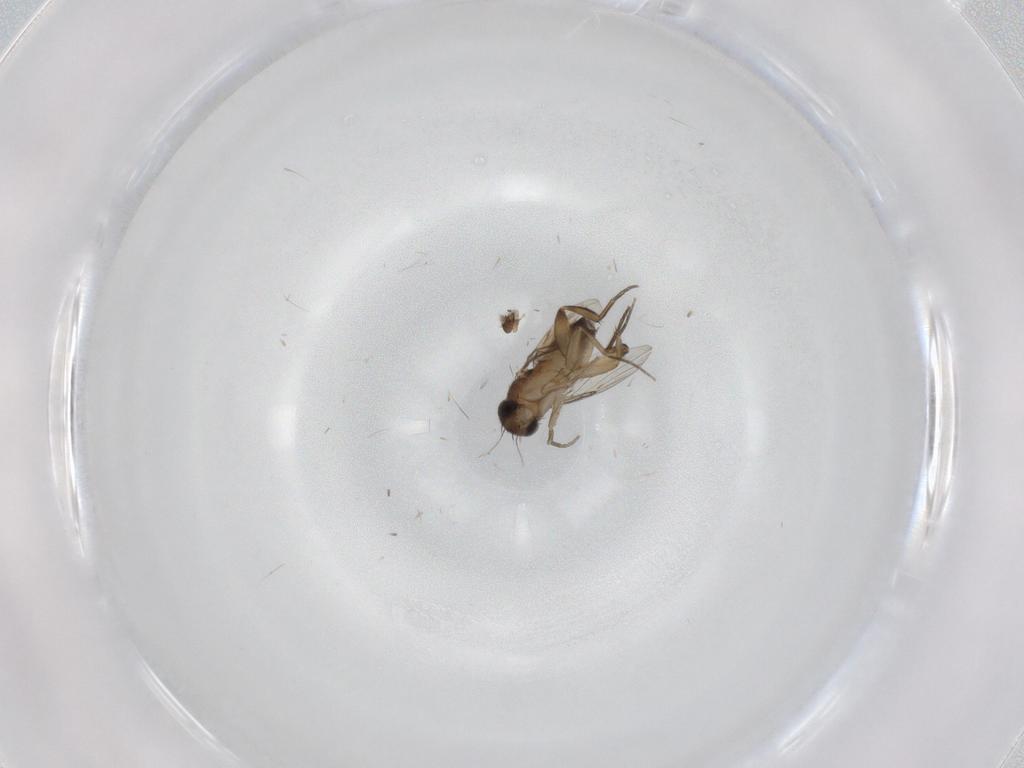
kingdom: Animalia
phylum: Arthropoda
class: Insecta
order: Diptera
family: Phoridae
